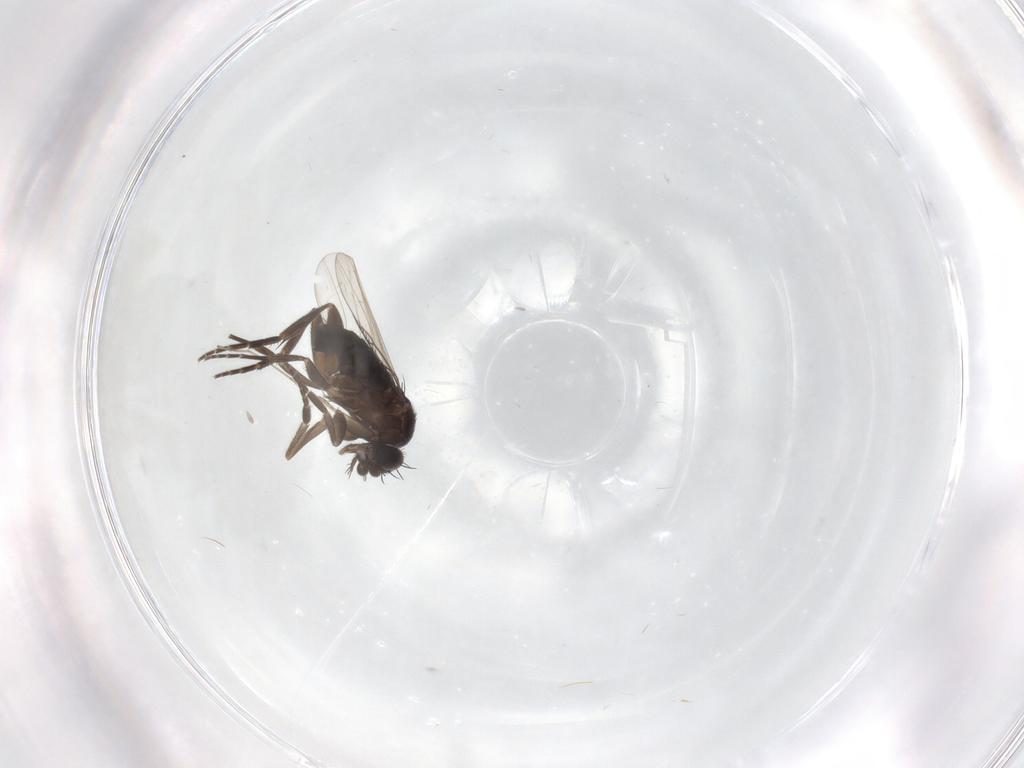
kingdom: Animalia
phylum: Arthropoda
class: Insecta
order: Diptera
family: Phoridae
